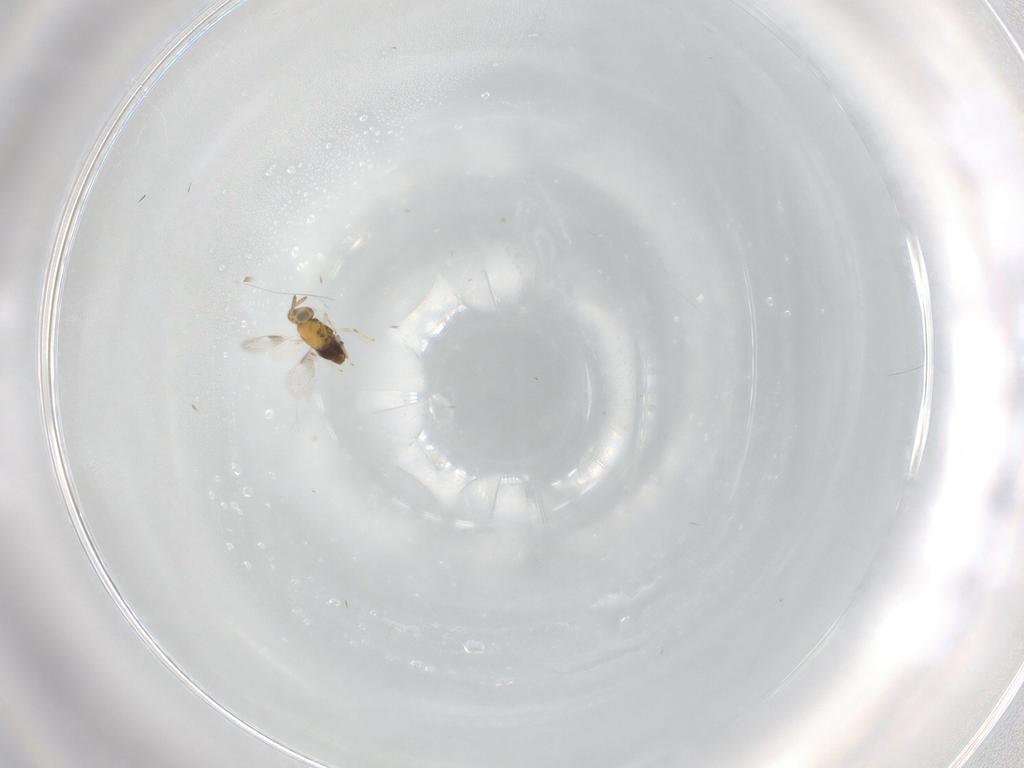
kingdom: Animalia
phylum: Arthropoda
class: Insecta
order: Hymenoptera
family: Aphelinidae
